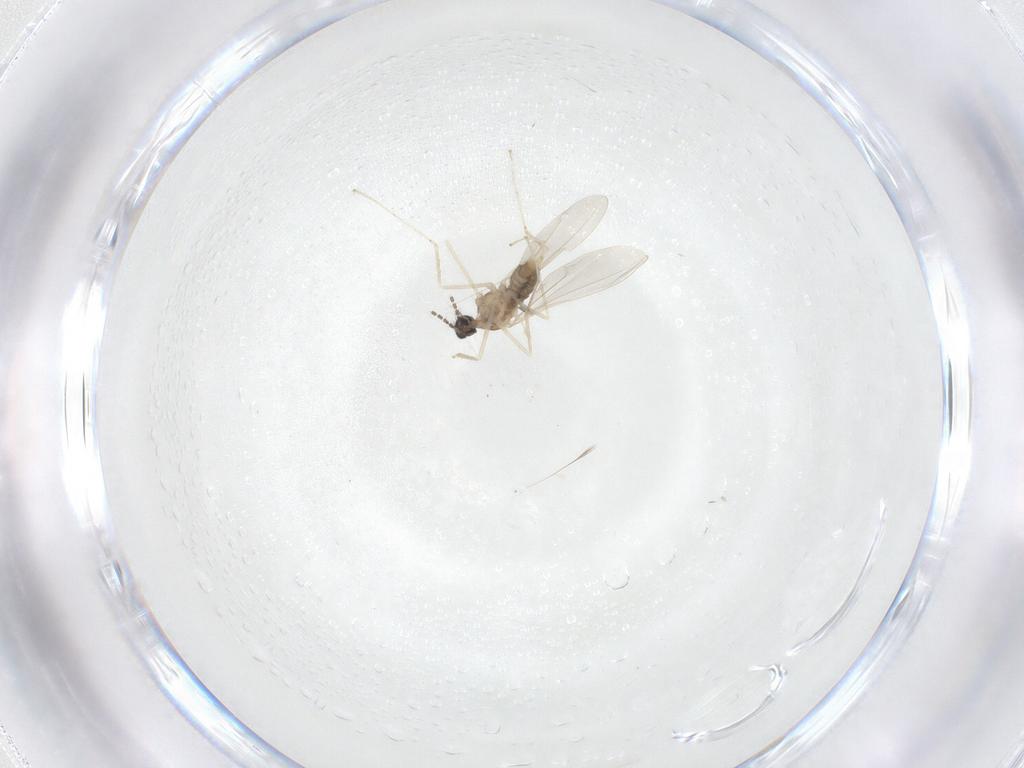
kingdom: Animalia
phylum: Arthropoda
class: Insecta
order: Diptera
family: Cecidomyiidae
